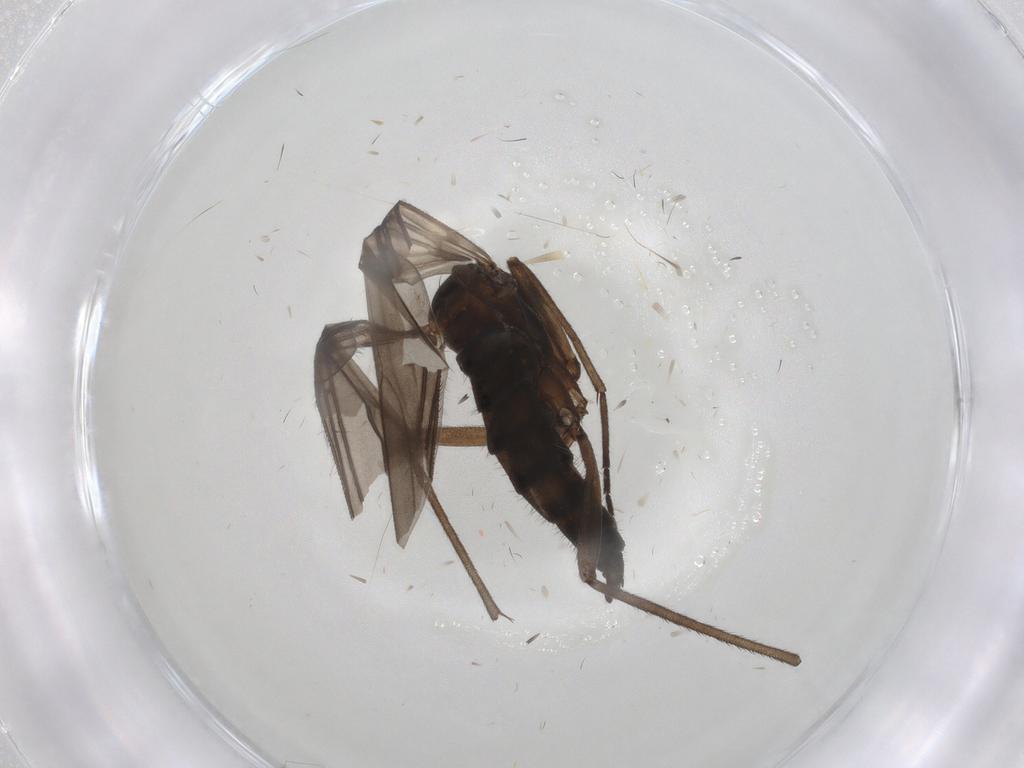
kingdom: Animalia
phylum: Arthropoda
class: Insecta
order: Diptera
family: Sciaridae
